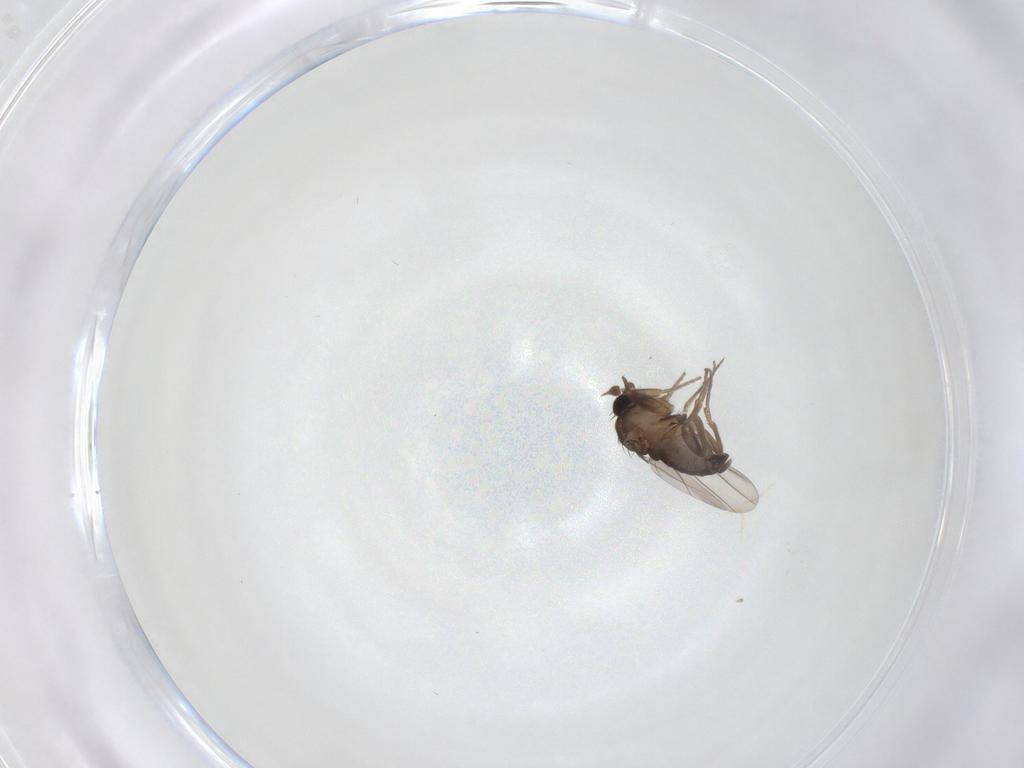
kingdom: Animalia
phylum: Arthropoda
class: Insecta
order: Diptera
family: Phoridae
